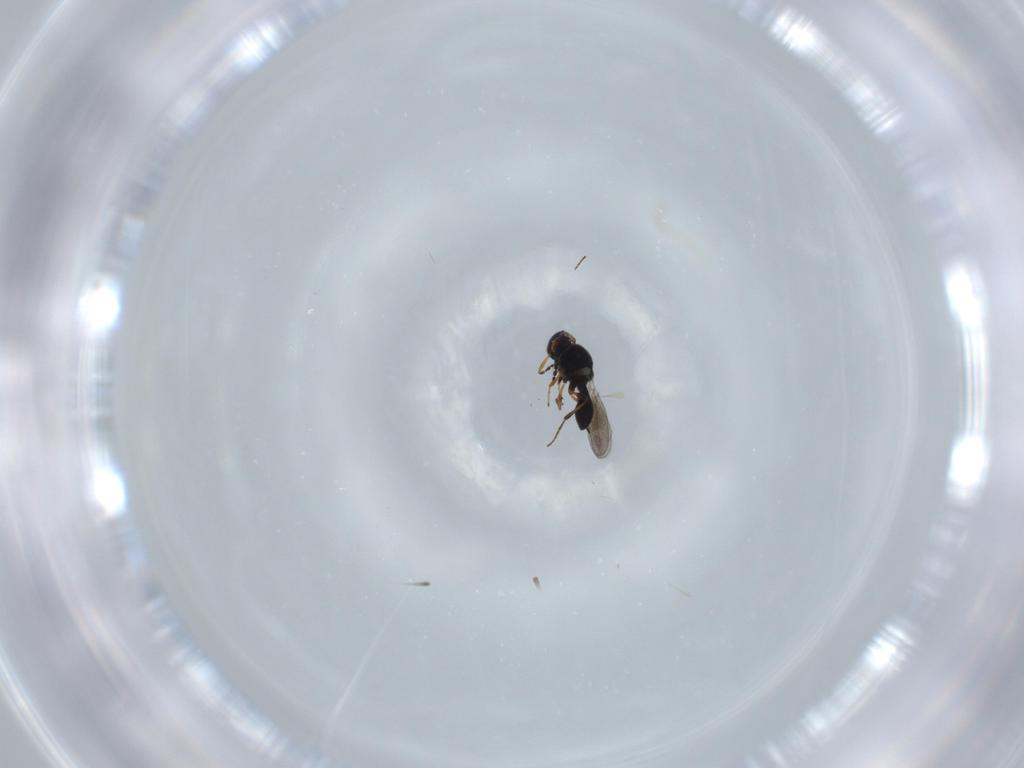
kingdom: Animalia
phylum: Arthropoda
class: Insecta
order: Hymenoptera
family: Platygastridae
